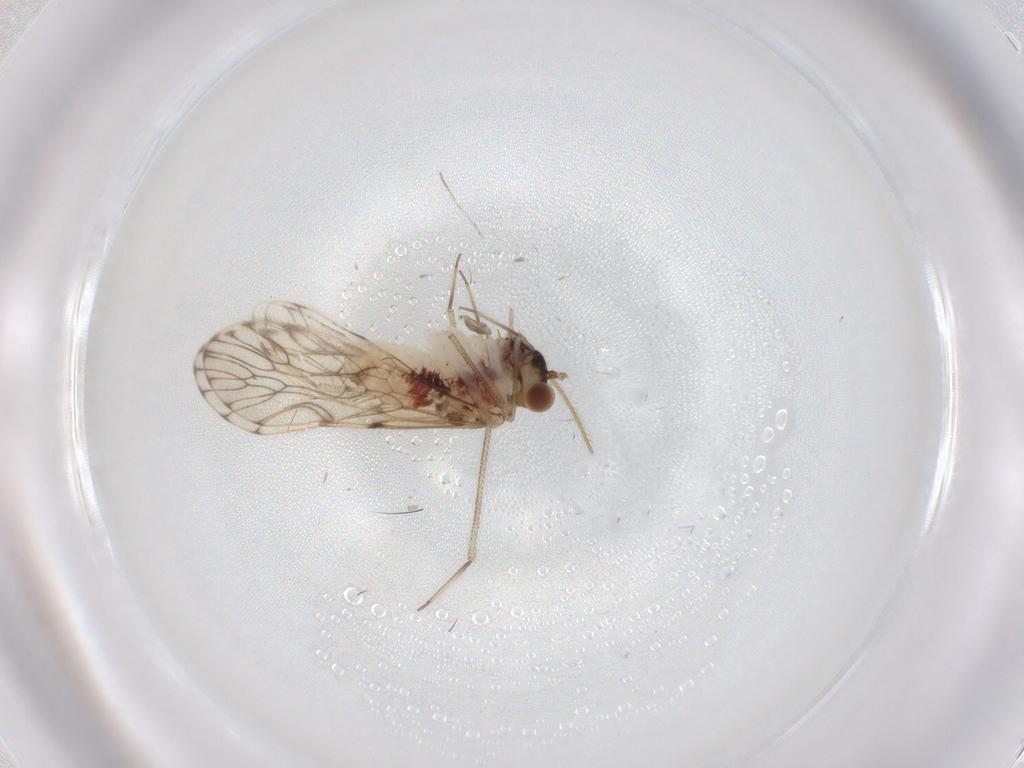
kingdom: Animalia
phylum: Arthropoda
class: Insecta
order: Psocodea
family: Epipsocidae
